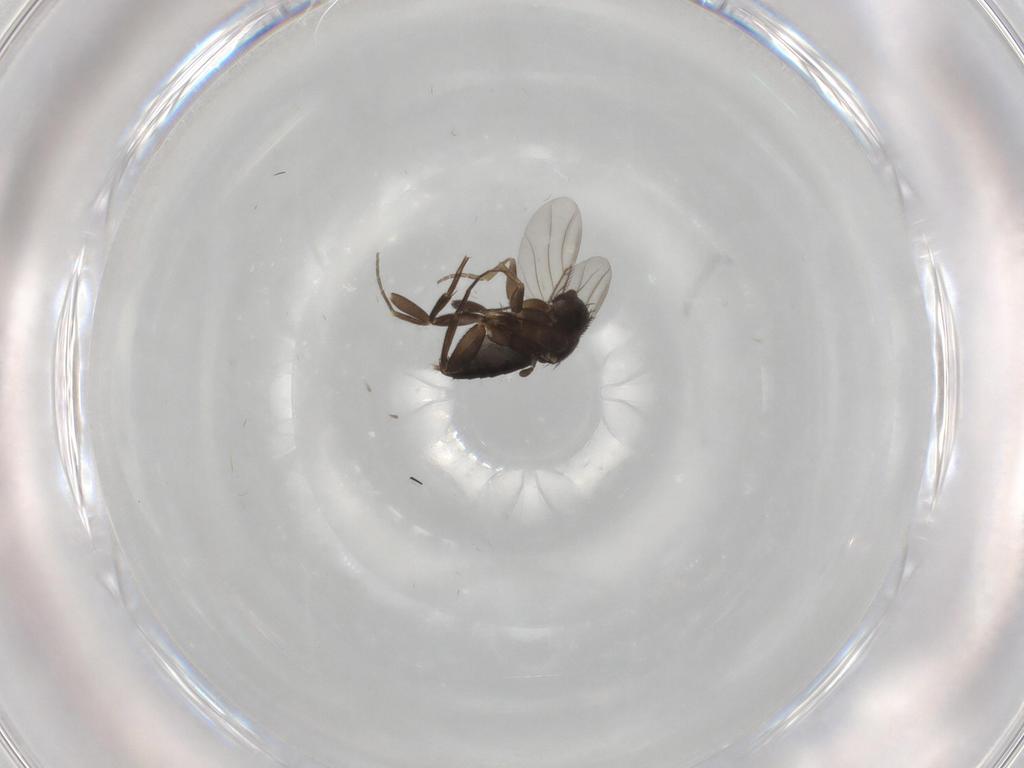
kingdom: Animalia
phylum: Arthropoda
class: Insecta
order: Diptera
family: Phoridae
